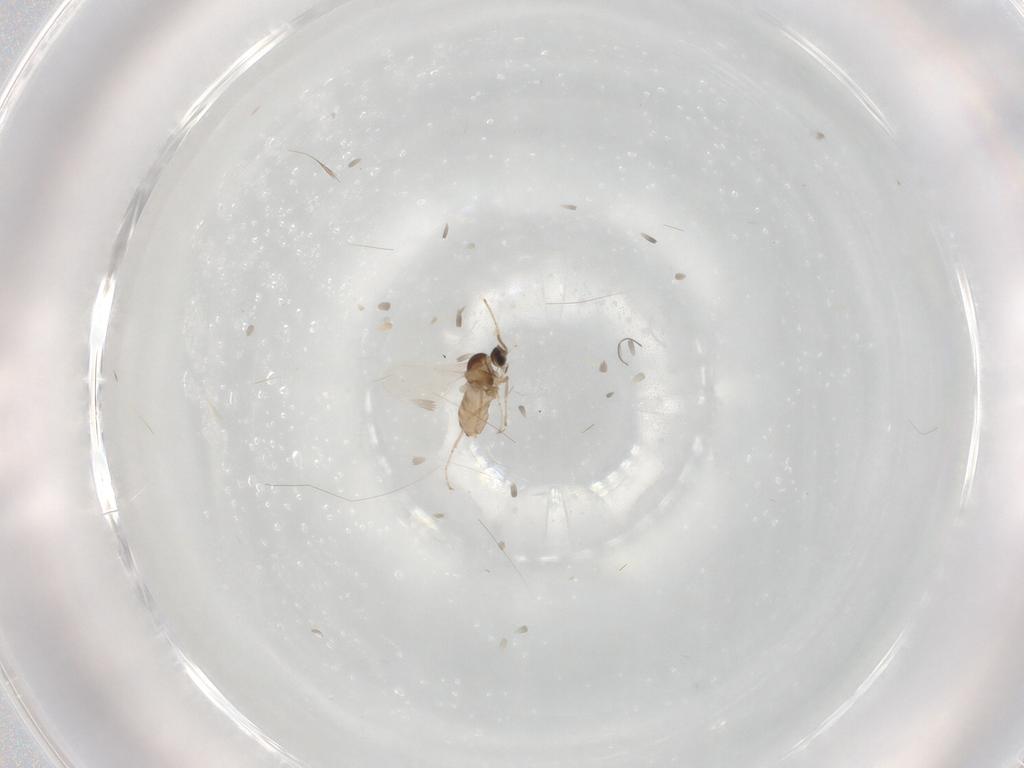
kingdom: Animalia
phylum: Arthropoda
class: Insecta
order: Diptera
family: Cecidomyiidae
